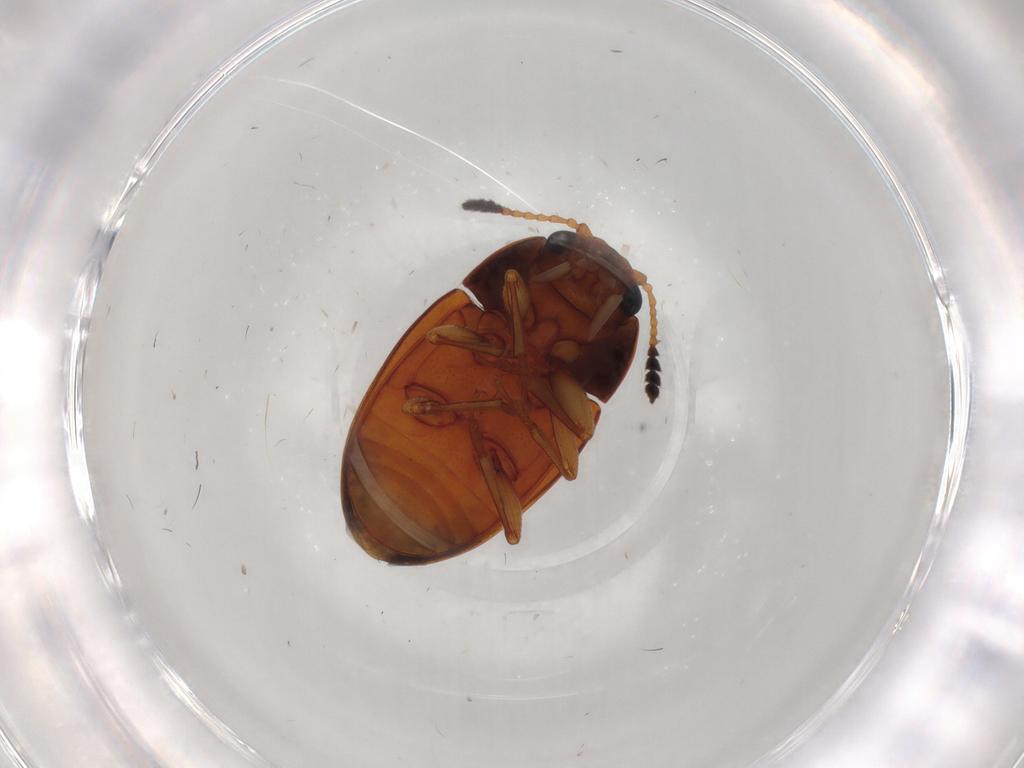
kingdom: Animalia
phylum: Arthropoda
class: Insecta
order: Coleoptera
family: Erotylidae
